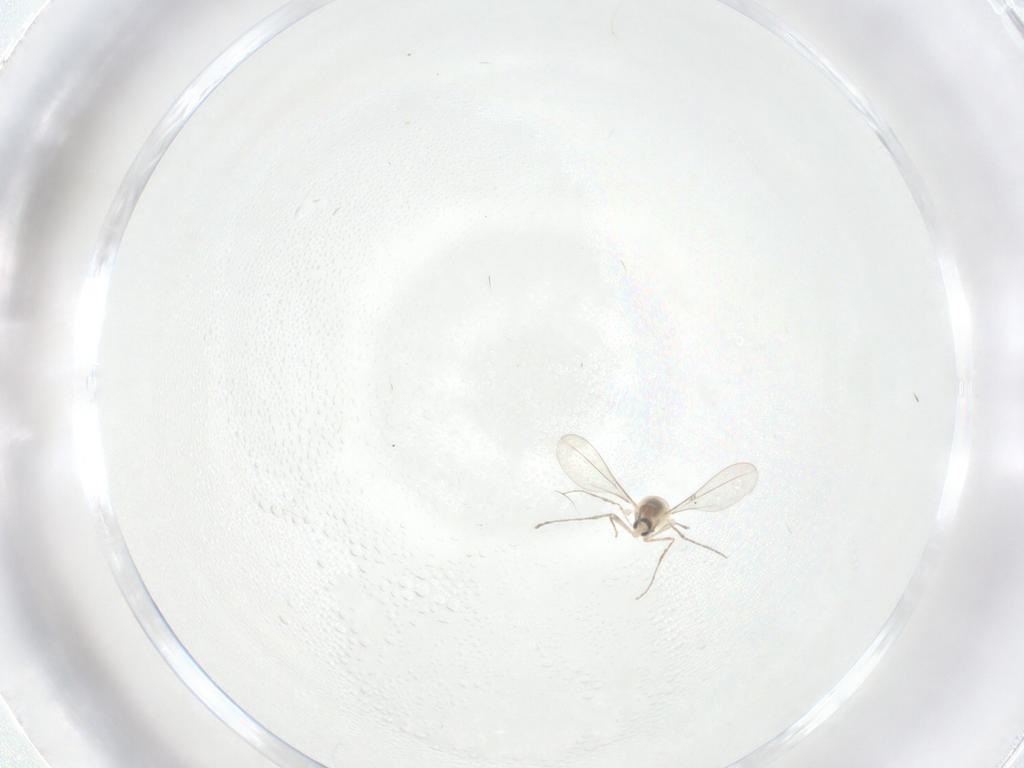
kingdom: Animalia
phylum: Arthropoda
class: Insecta
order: Diptera
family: Cecidomyiidae
